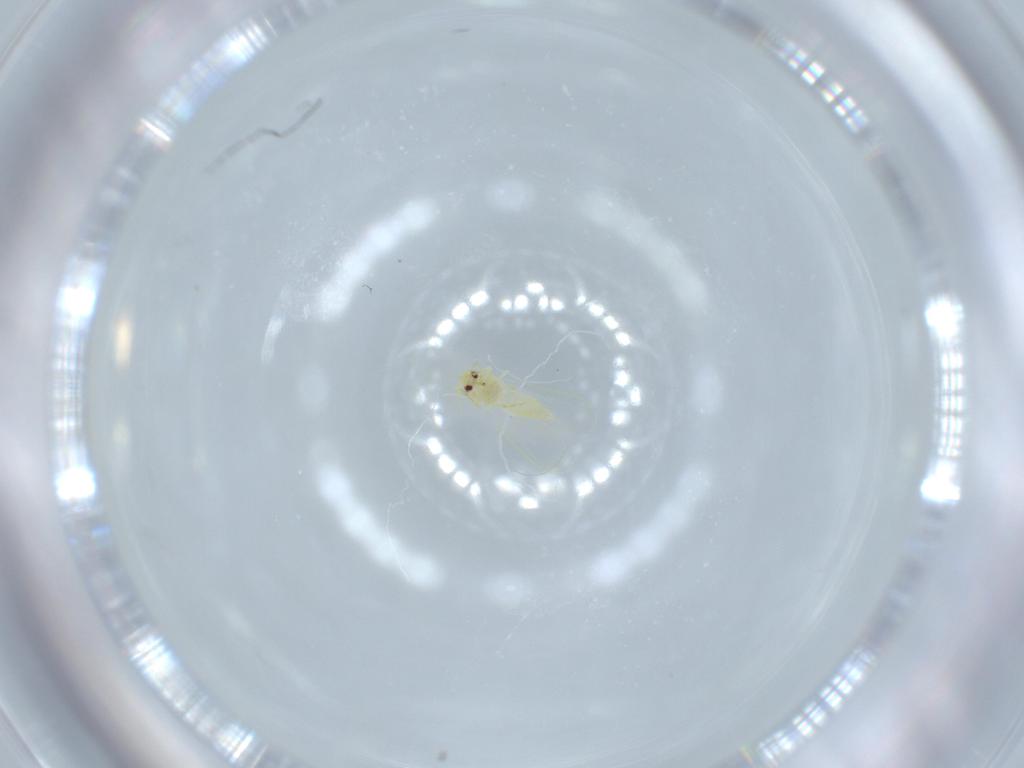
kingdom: Animalia
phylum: Arthropoda
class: Insecta
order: Hemiptera
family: Aleyrodidae
